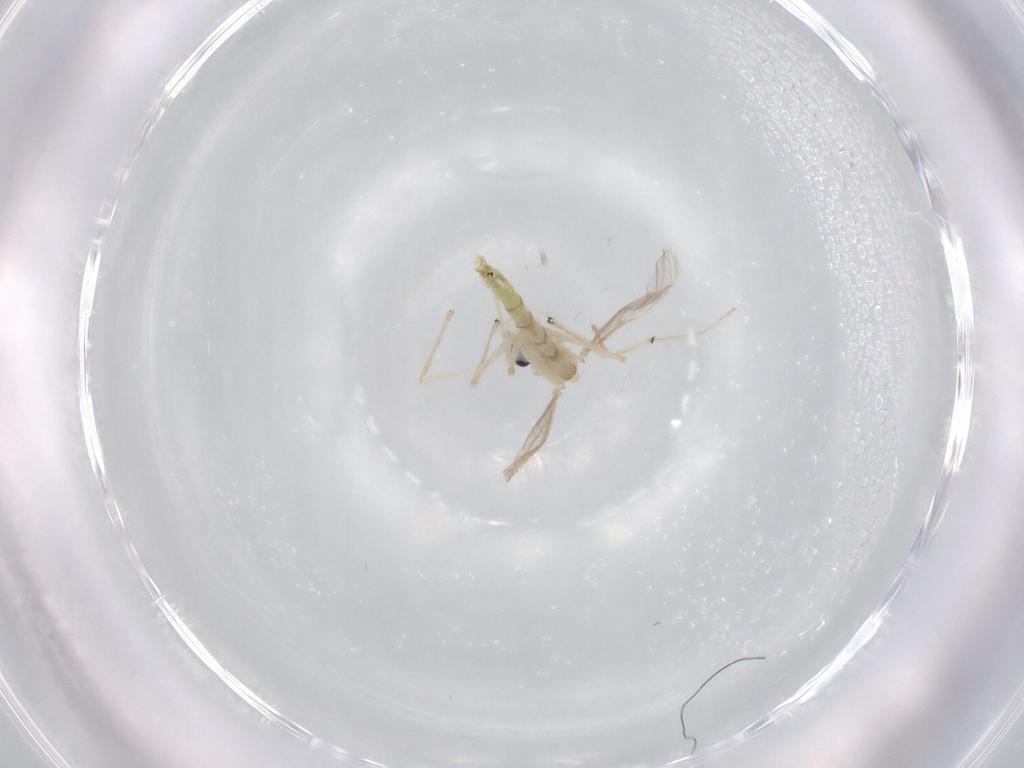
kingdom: Animalia
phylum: Arthropoda
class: Insecta
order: Diptera
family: Chironomidae
